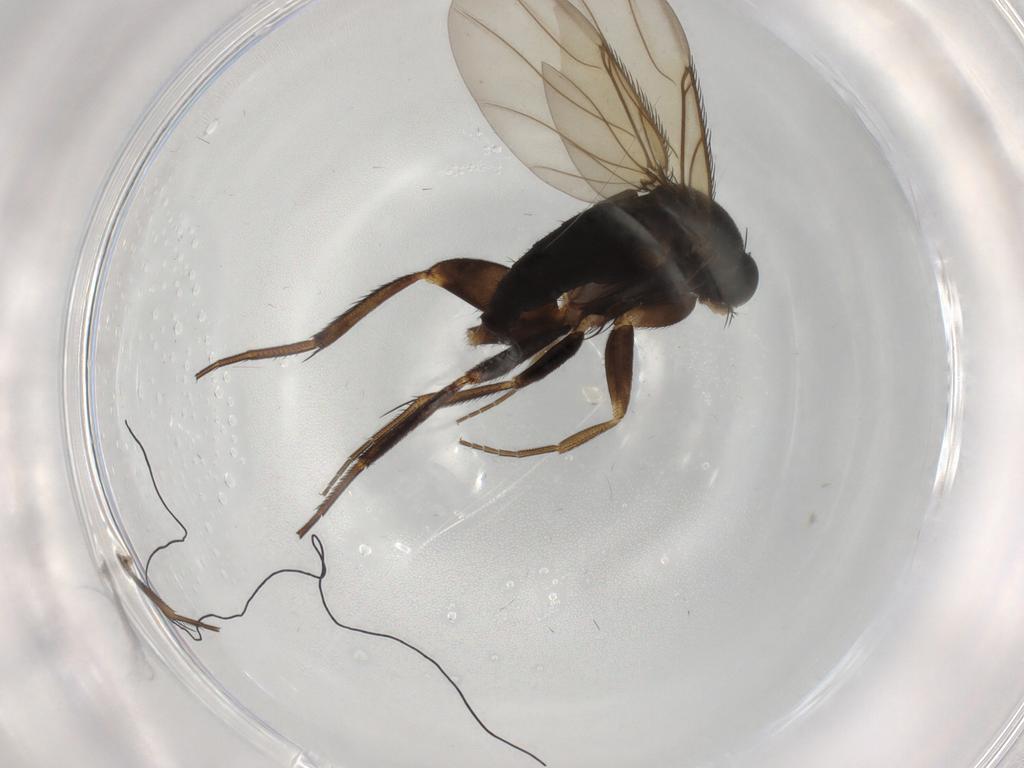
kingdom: Animalia
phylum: Arthropoda
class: Insecta
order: Diptera
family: Phoridae
